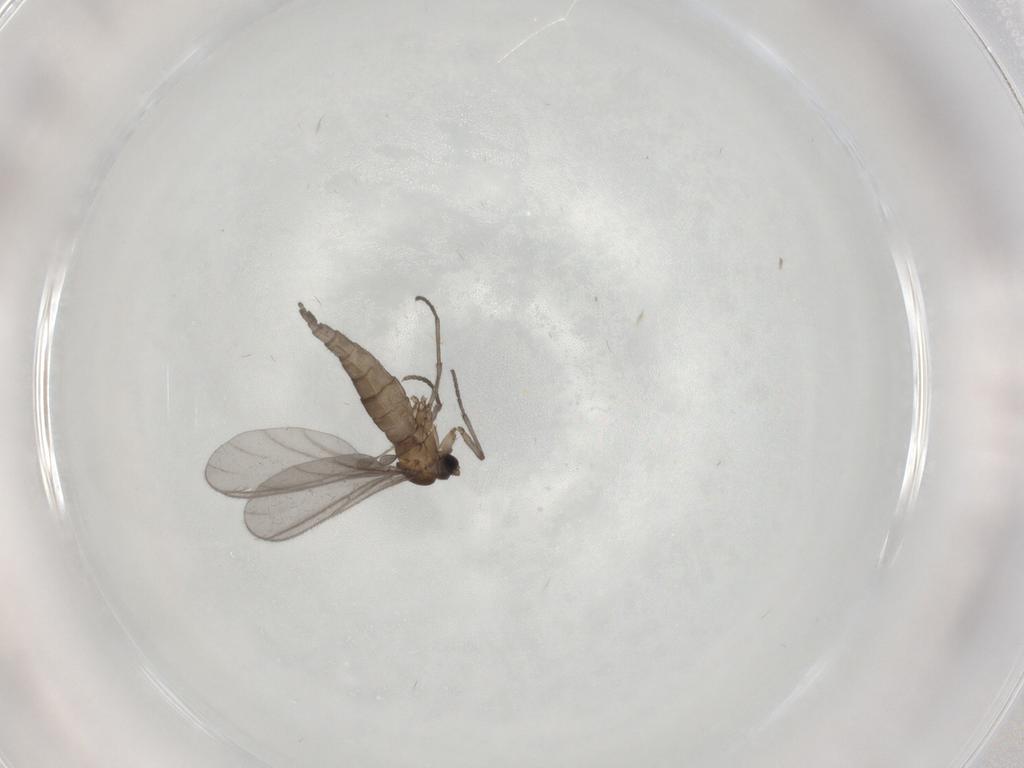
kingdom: Animalia
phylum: Arthropoda
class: Insecta
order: Diptera
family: Sciaridae
